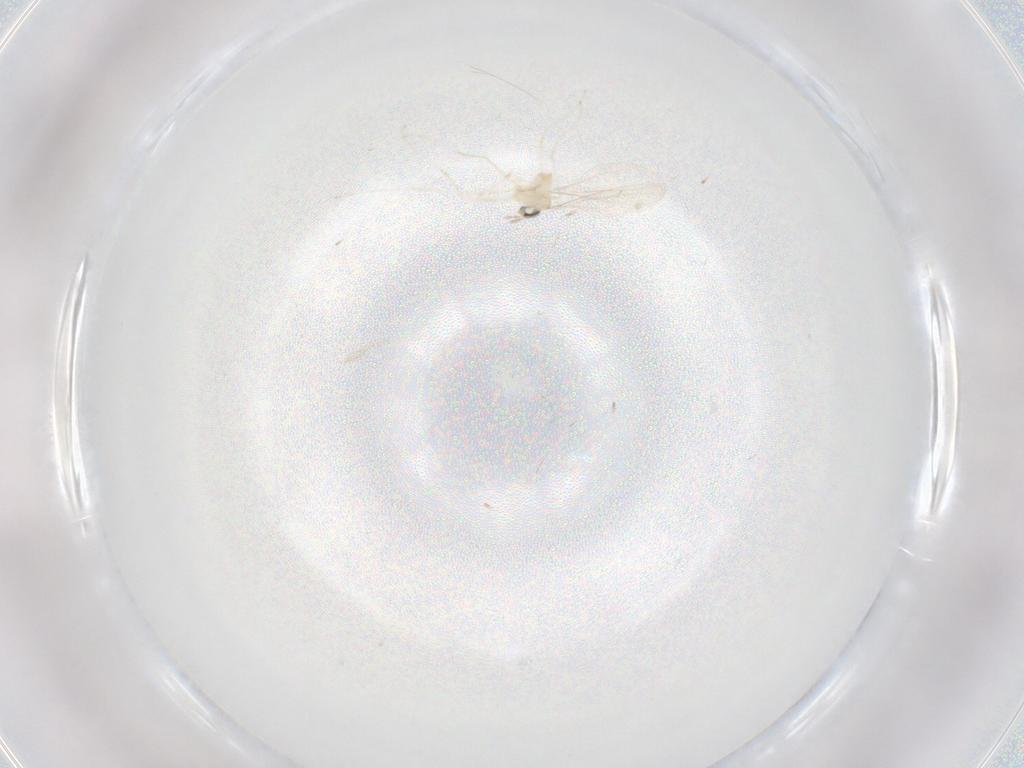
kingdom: Animalia
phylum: Arthropoda
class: Insecta
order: Diptera
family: Cecidomyiidae
